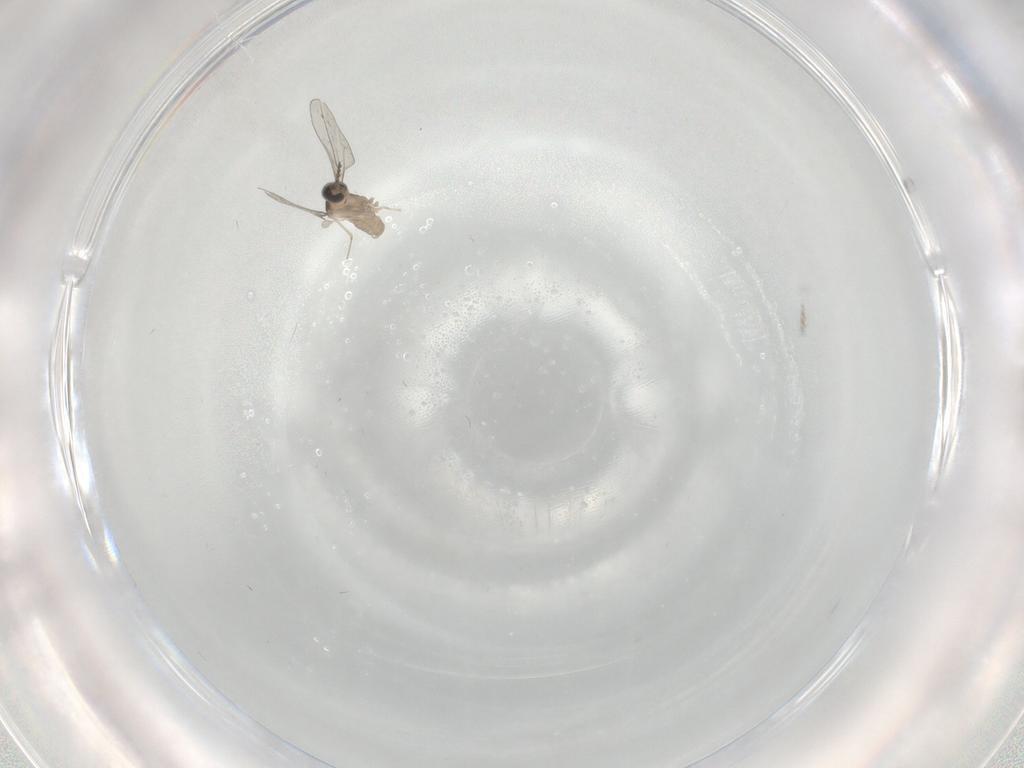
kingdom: Animalia
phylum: Arthropoda
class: Insecta
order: Diptera
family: Cecidomyiidae
